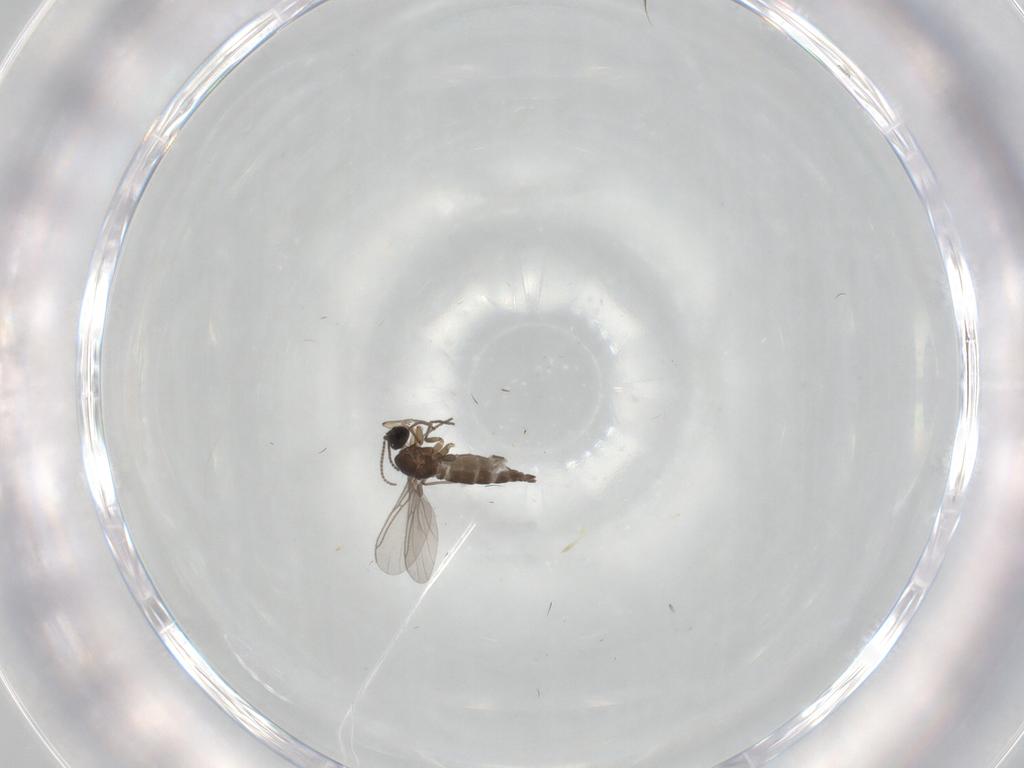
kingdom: Animalia
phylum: Arthropoda
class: Insecta
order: Diptera
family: Sciaridae
